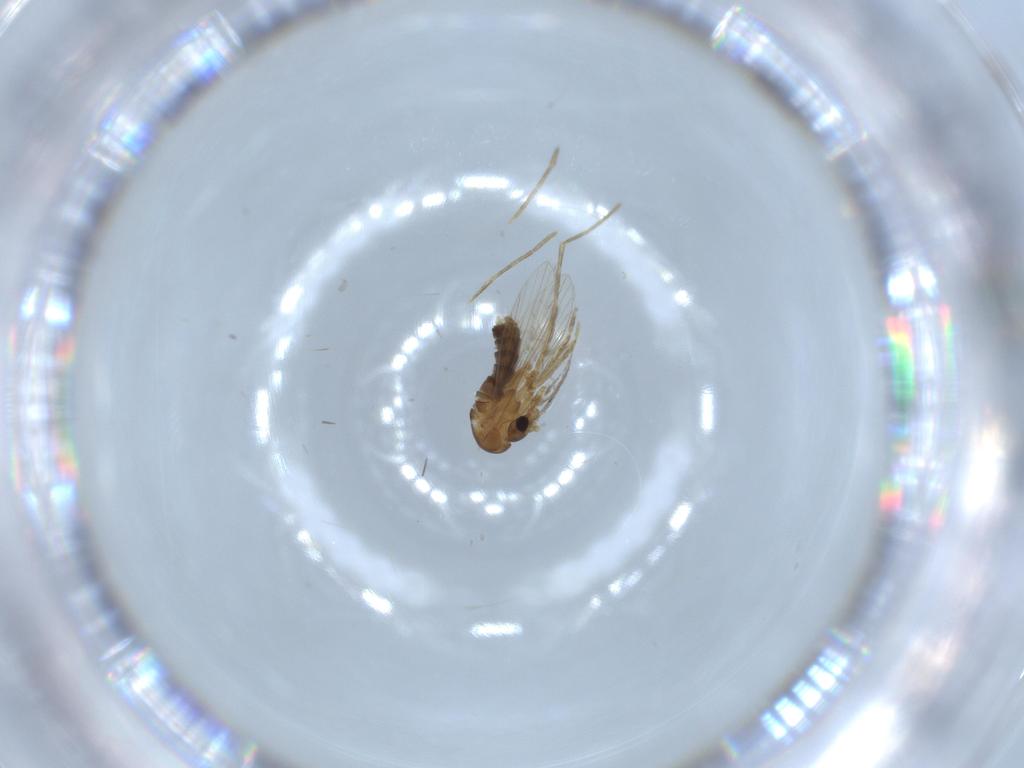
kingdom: Animalia
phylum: Arthropoda
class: Insecta
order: Diptera
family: Psychodidae
